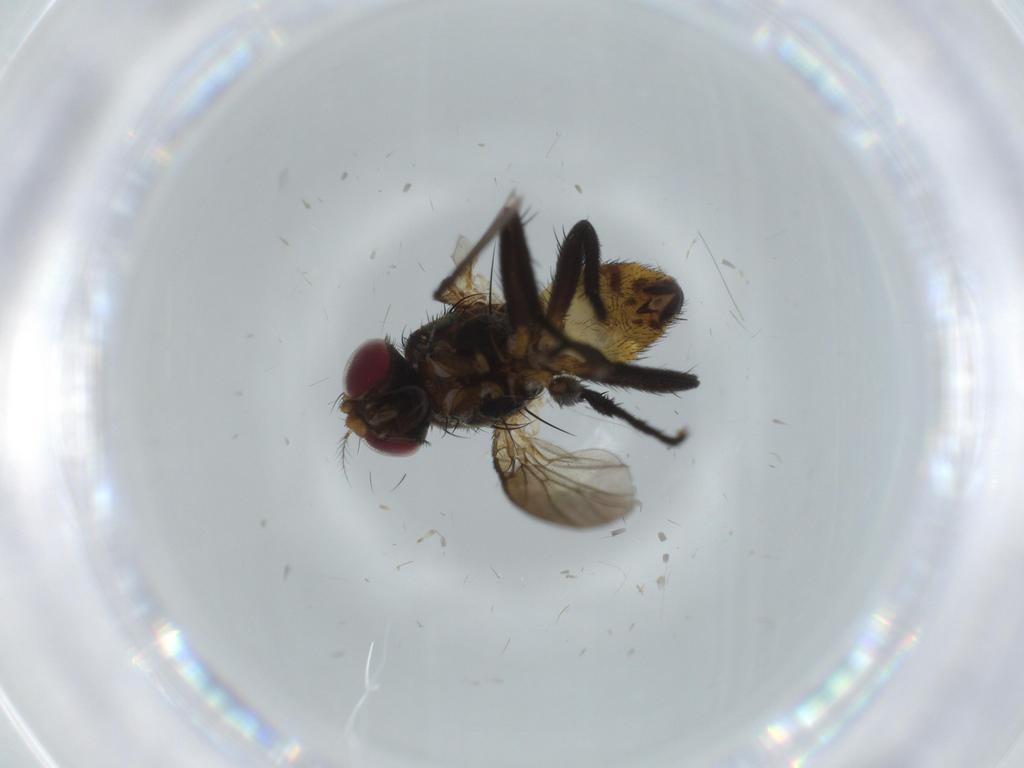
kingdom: Animalia
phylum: Arthropoda
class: Insecta
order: Diptera
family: Anthomyiidae
